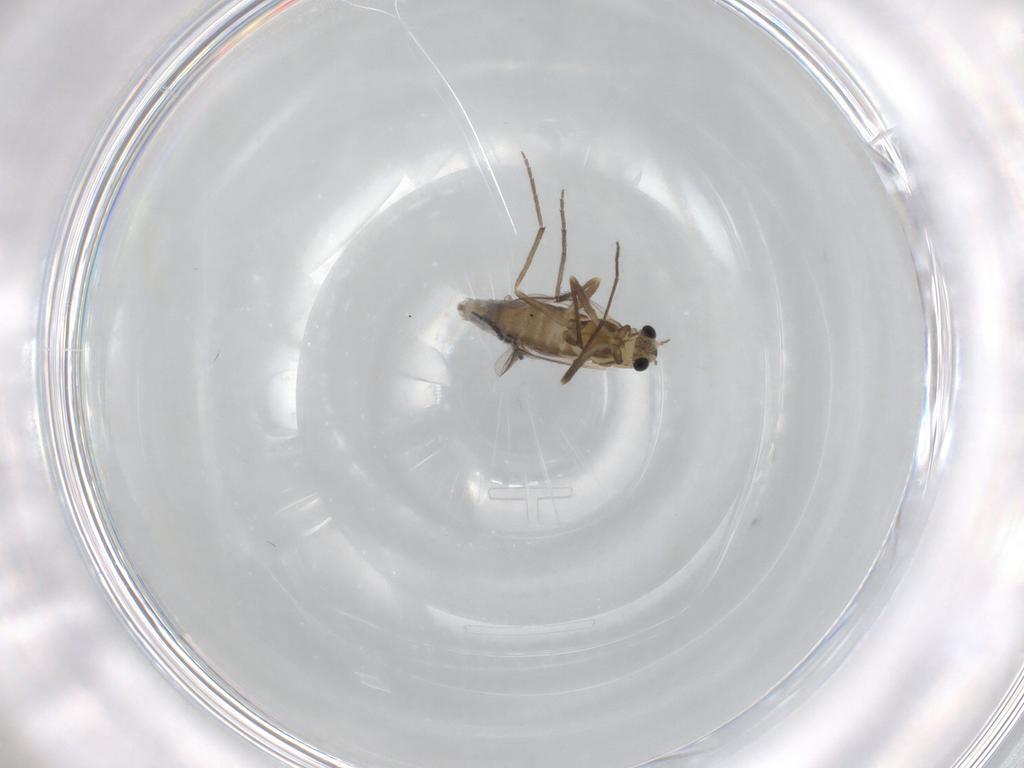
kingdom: Animalia
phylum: Arthropoda
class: Insecta
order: Diptera
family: Chironomidae
